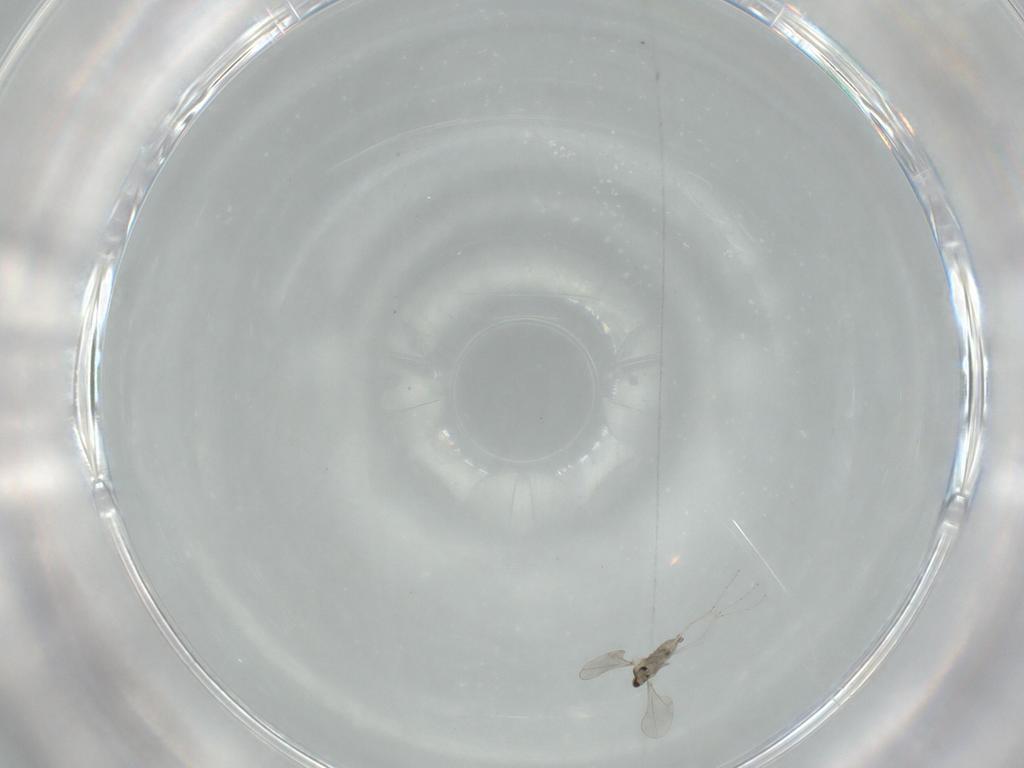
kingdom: Animalia
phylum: Arthropoda
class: Insecta
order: Diptera
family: Cecidomyiidae
